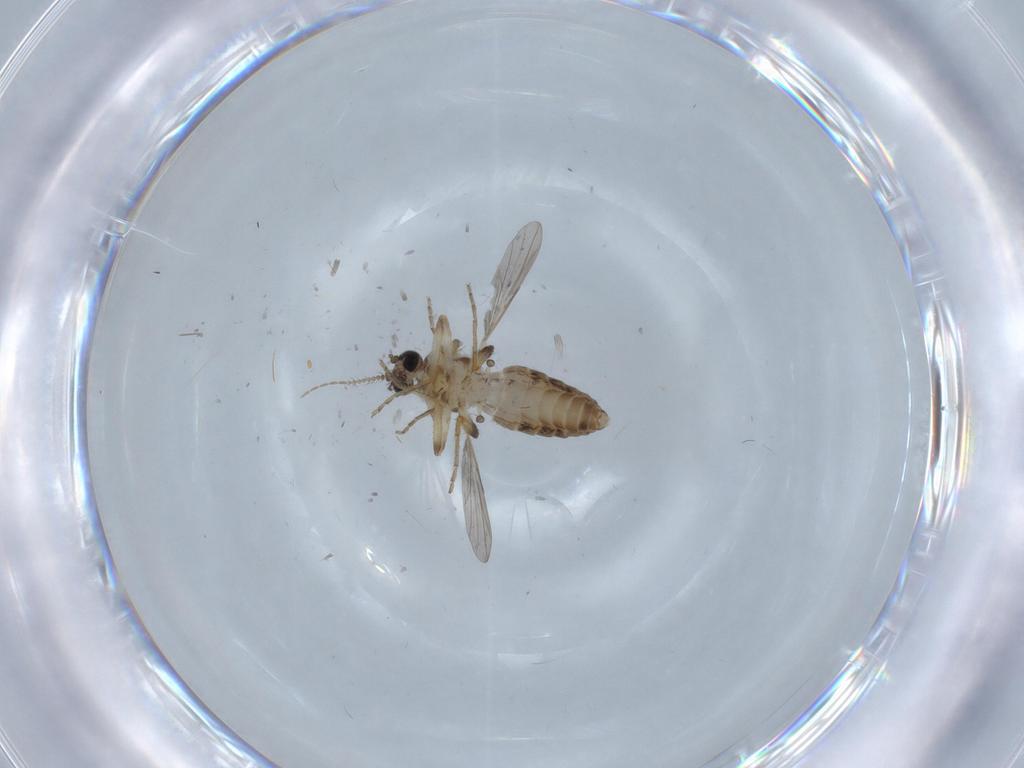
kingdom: Animalia
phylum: Arthropoda
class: Insecta
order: Diptera
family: Ceratopogonidae
